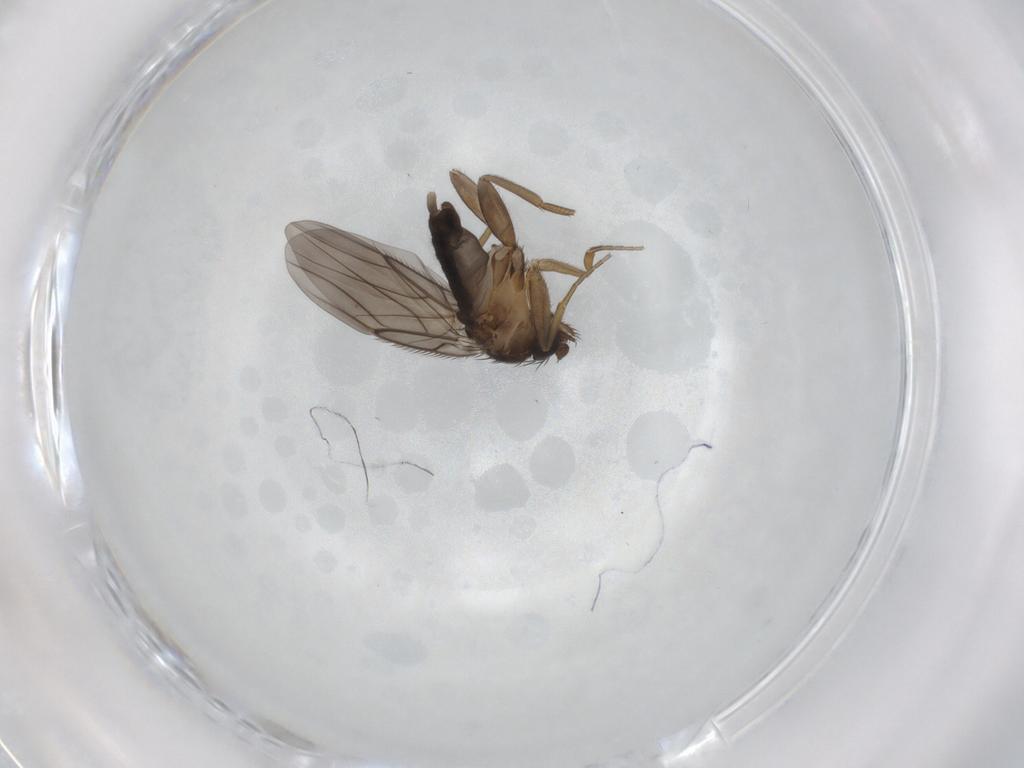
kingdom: Animalia
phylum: Arthropoda
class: Insecta
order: Diptera
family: Phoridae
